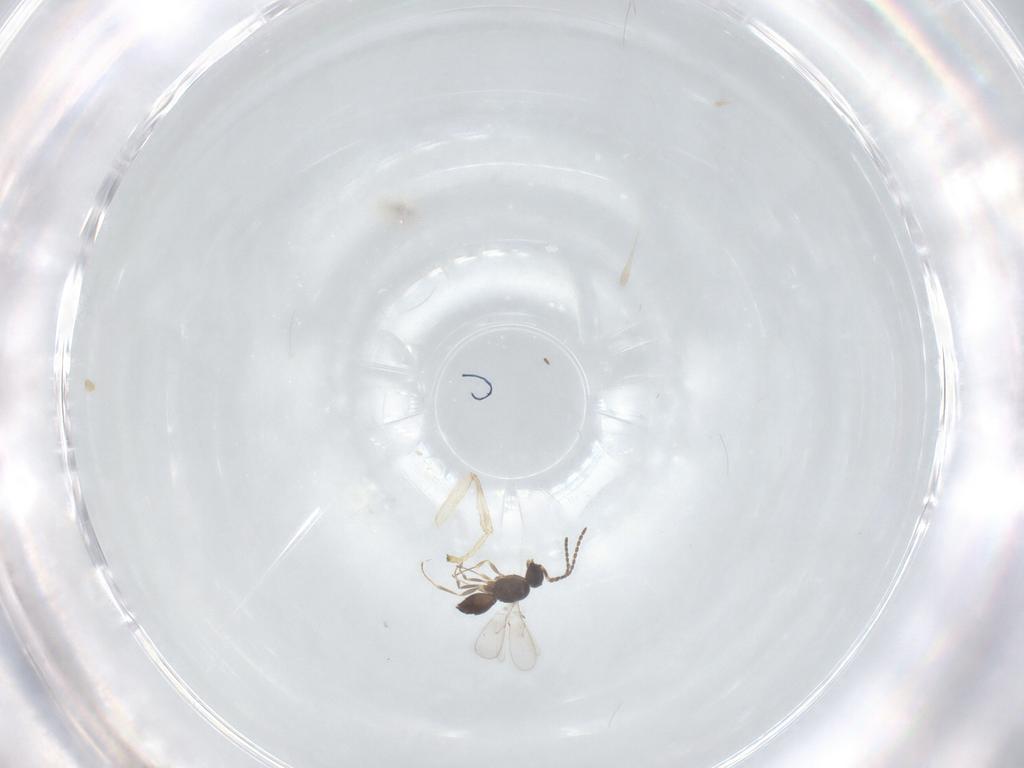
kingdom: Animalia
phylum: Arthropoda
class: Insecta
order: Hymenoptera
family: Scelionidae
